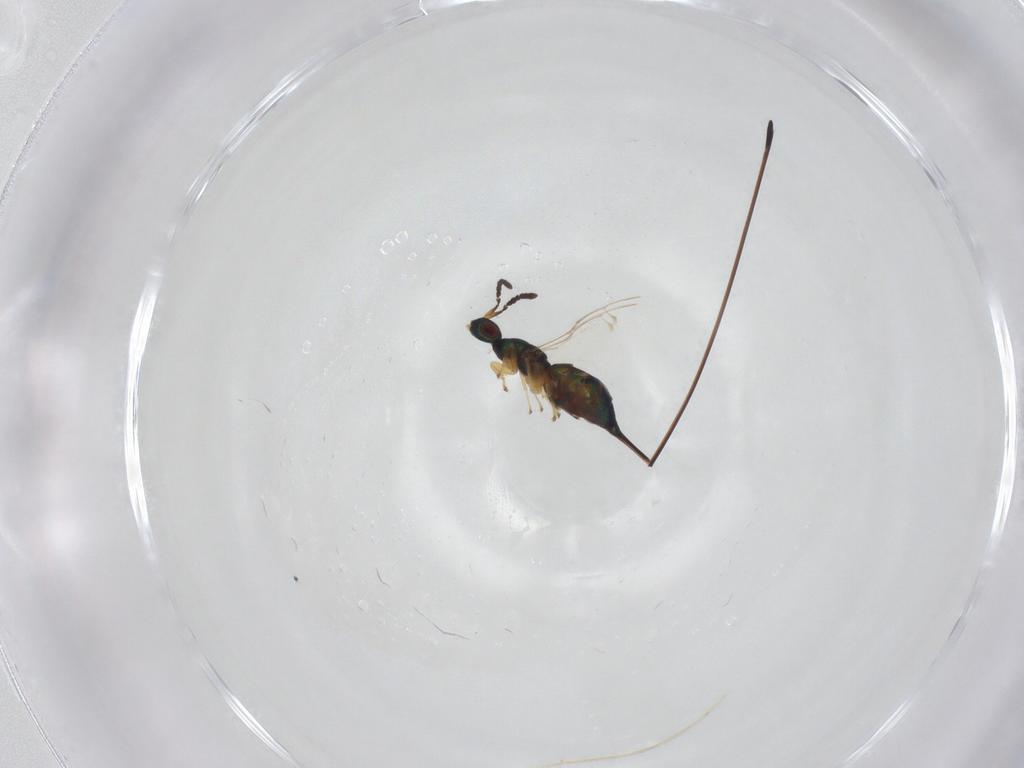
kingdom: Animalia
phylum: Arthropoda
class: Insecta
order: Hymenoptera
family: Pteromalidae
